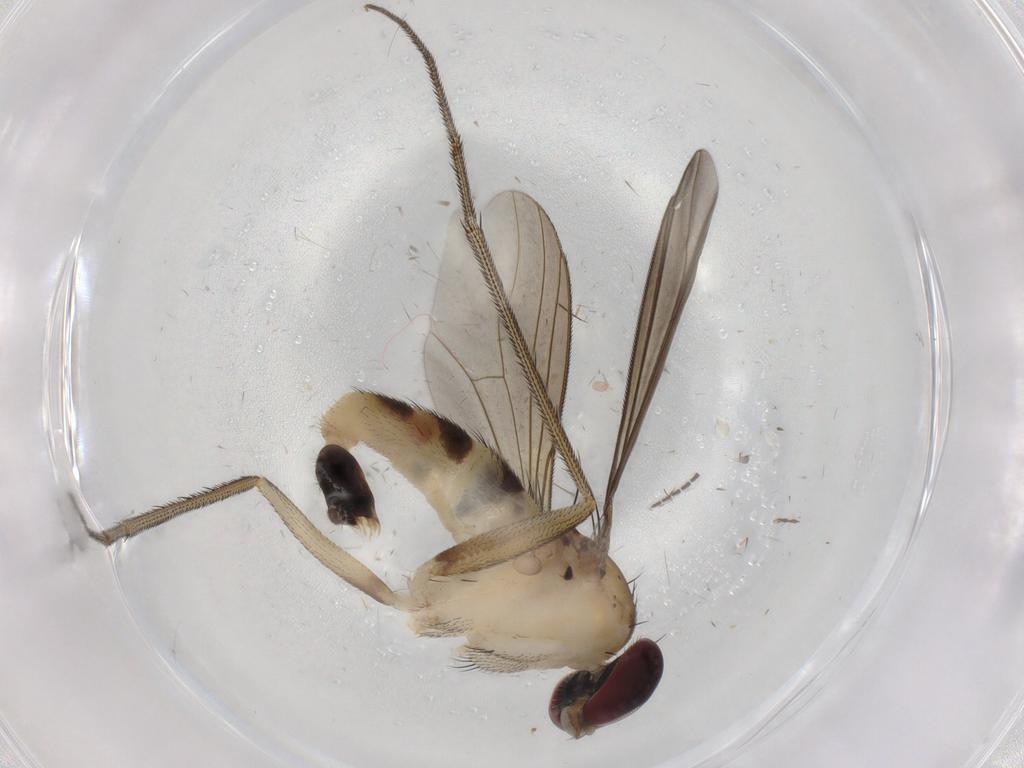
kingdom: Animalia
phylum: Arthropoda
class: Insecta
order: Diptera
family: Dolichopodidae
